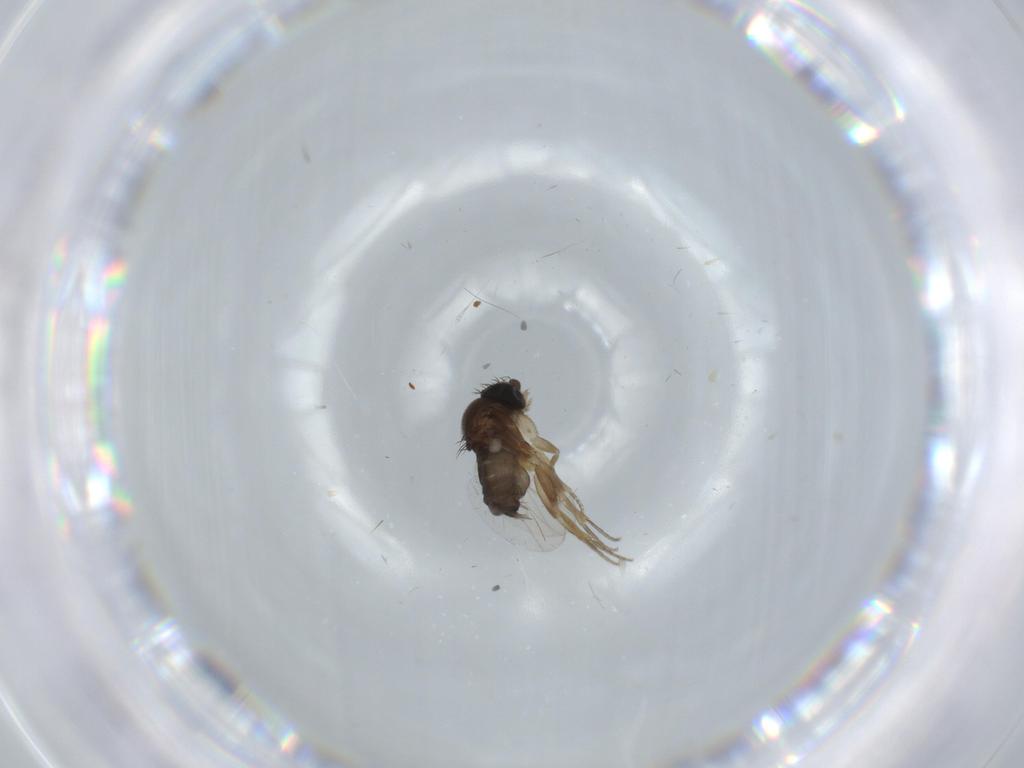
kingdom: Animalia
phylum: Arthropoda
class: Insecta
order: Diptera
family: Phoridae
